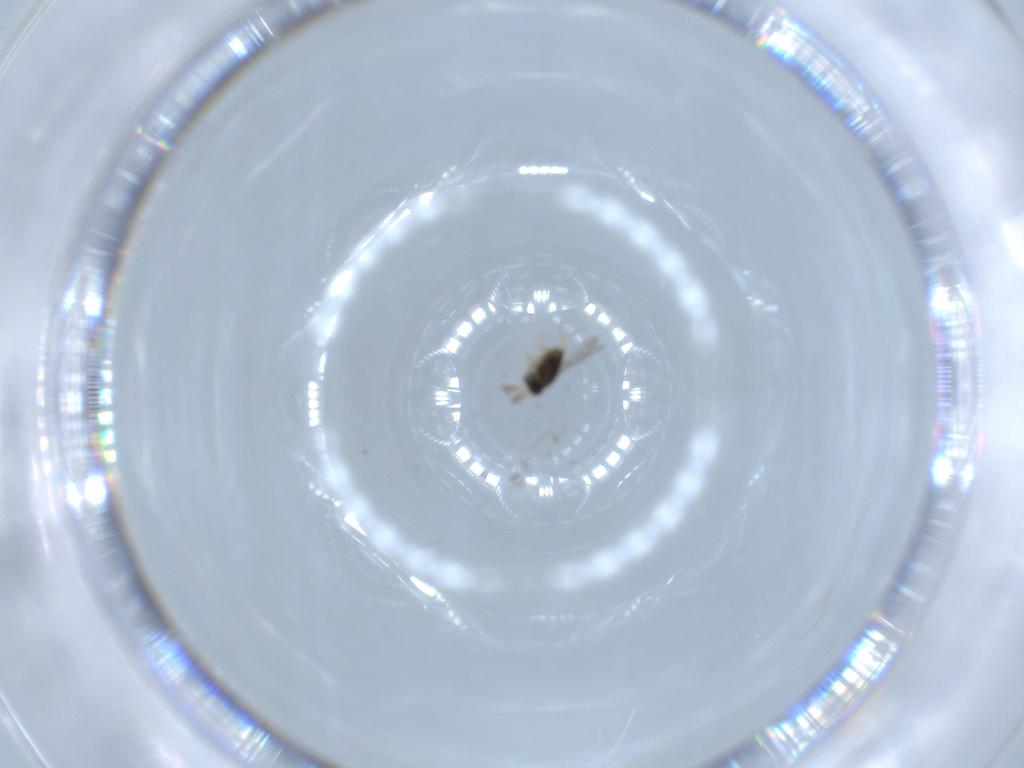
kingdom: Animalia
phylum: Arthropoda
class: Insecta
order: Hymenoptera
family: Encyrtidae
